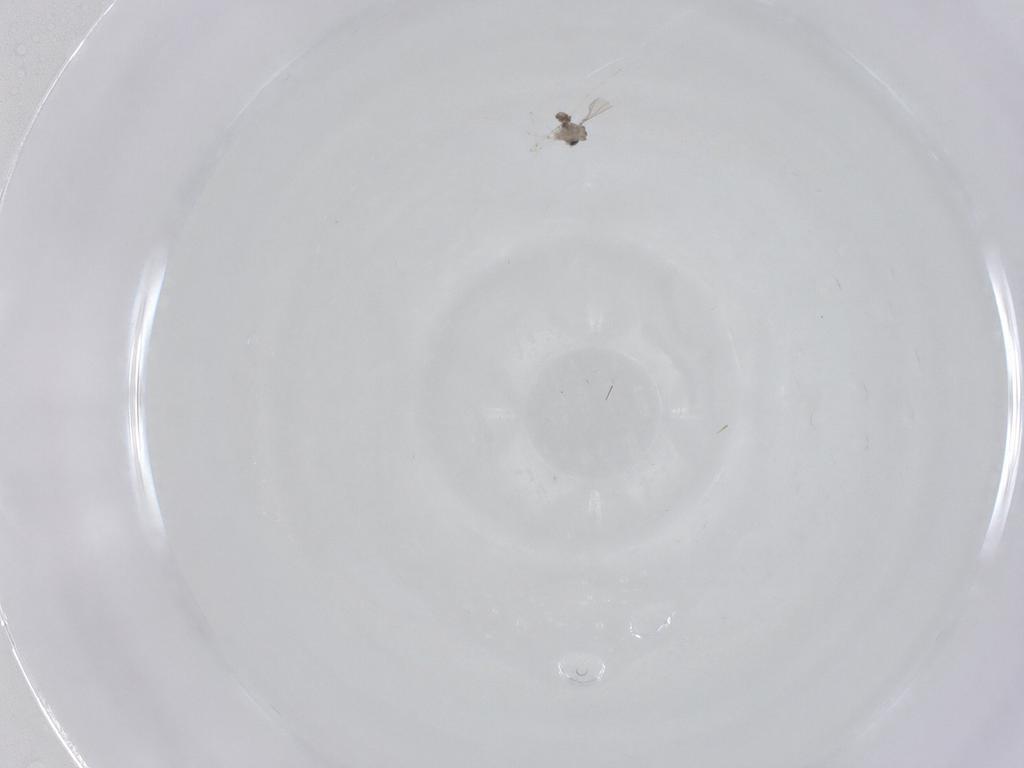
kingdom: Animalia
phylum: Arthropoda
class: Insecta
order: Diptera
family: Cecidomyiidae
